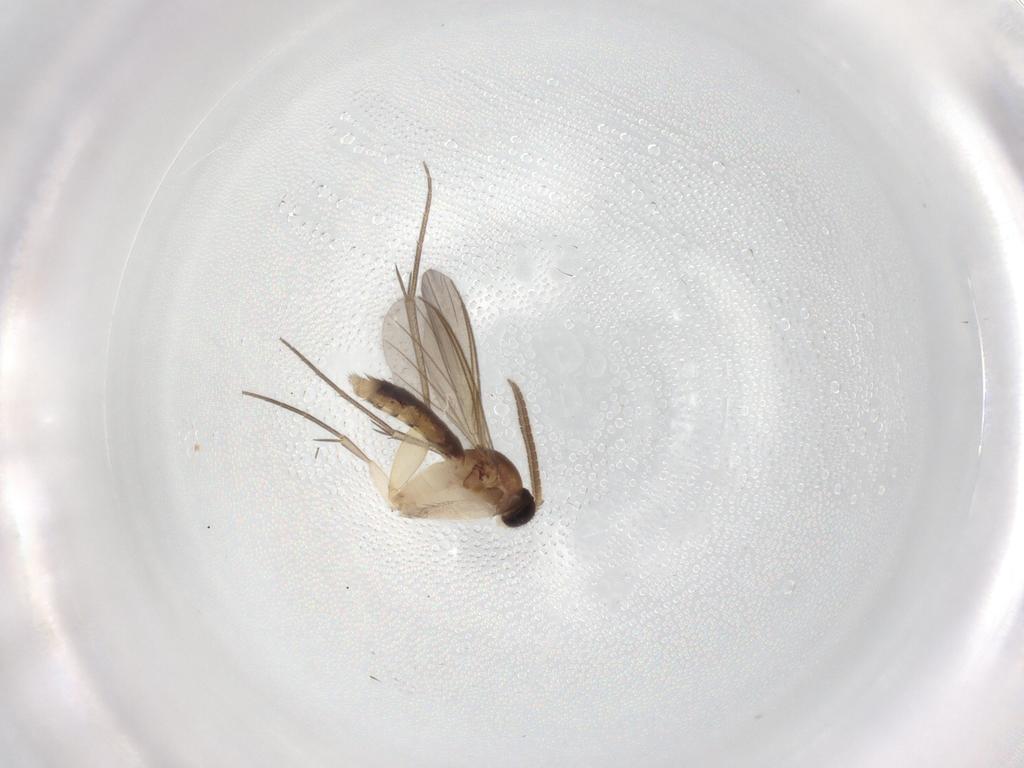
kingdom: Animalia
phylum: Arthropoda
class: Insecta
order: Diptera
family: Mycetophilidae
